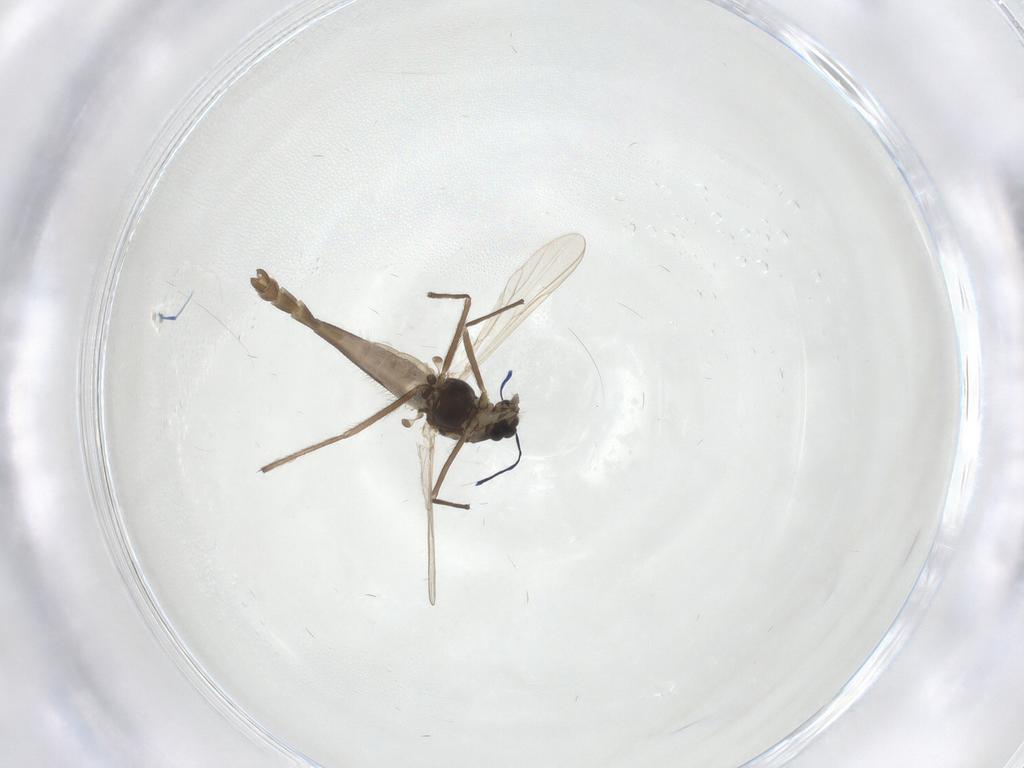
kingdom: Animalia
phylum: Arthropoda
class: Insecta
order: Diptera
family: Chironomidae
